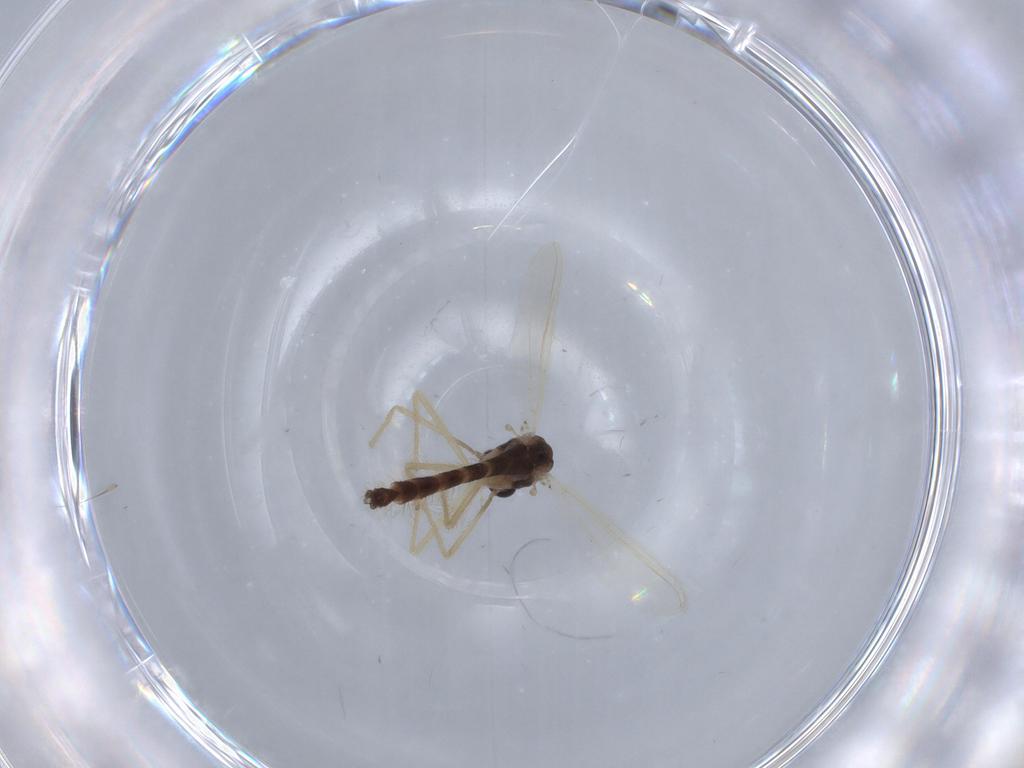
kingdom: Animalia
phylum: Arthropoda
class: Insecta
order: Diptera
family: Chironomidae
